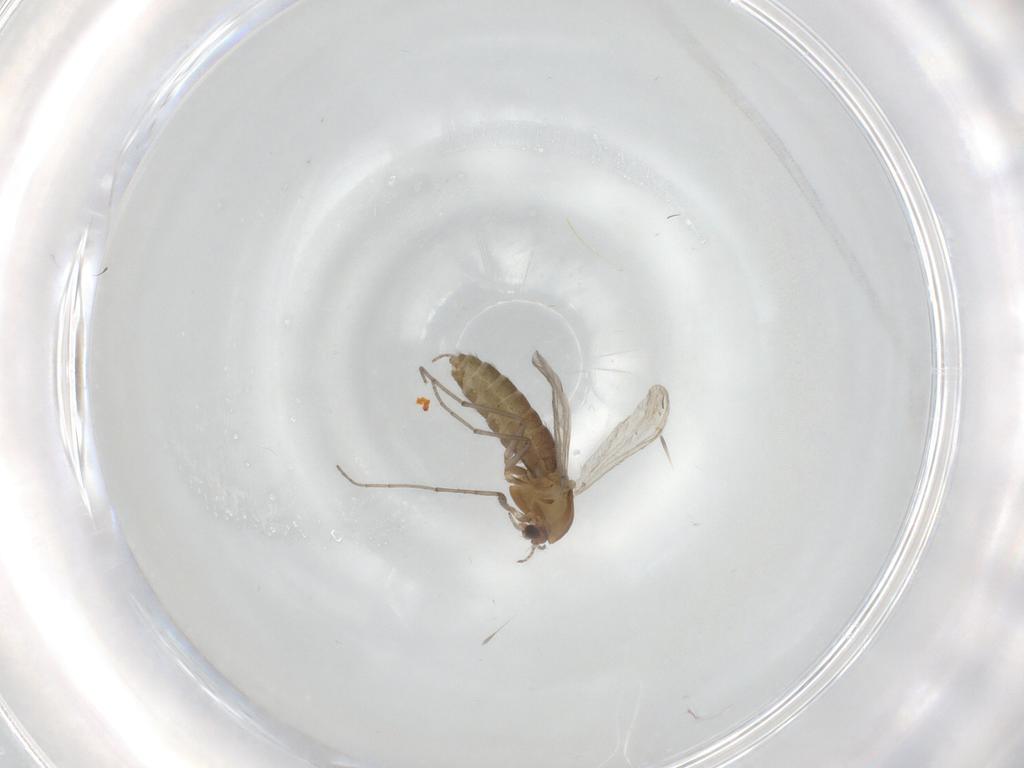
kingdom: Animalia
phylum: Arthropoda
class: Insecta
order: Diptera
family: Chironomidae
